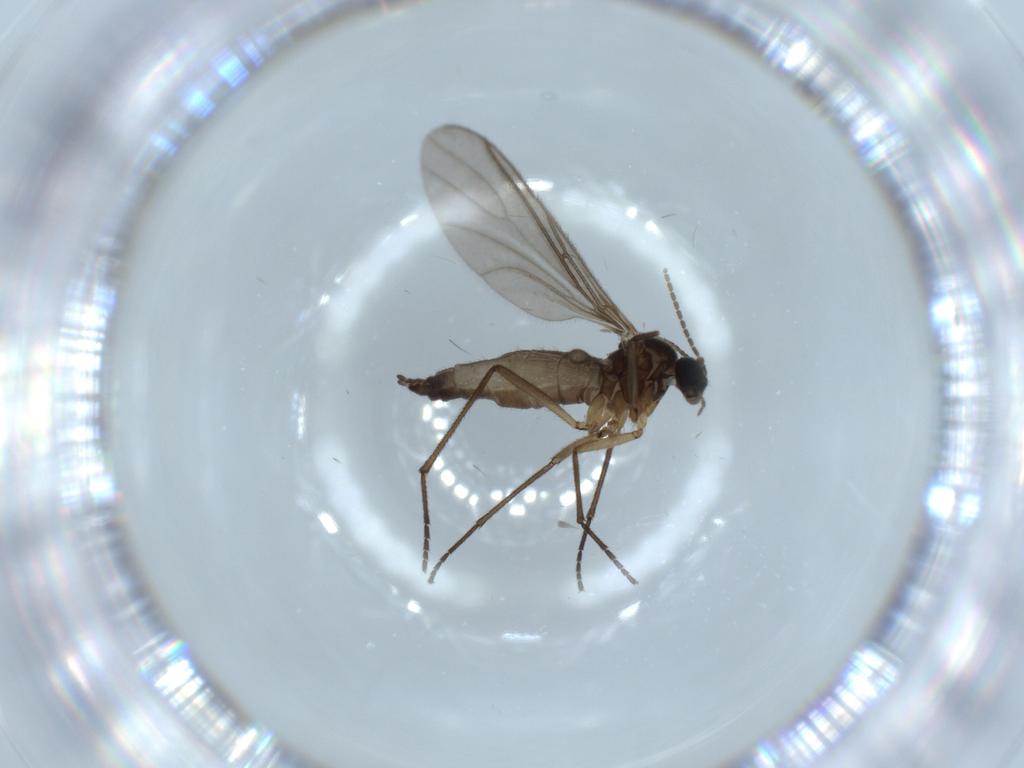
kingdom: Animalia
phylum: Arthropoda
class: Insecta
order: Diptera
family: Sciaridae
